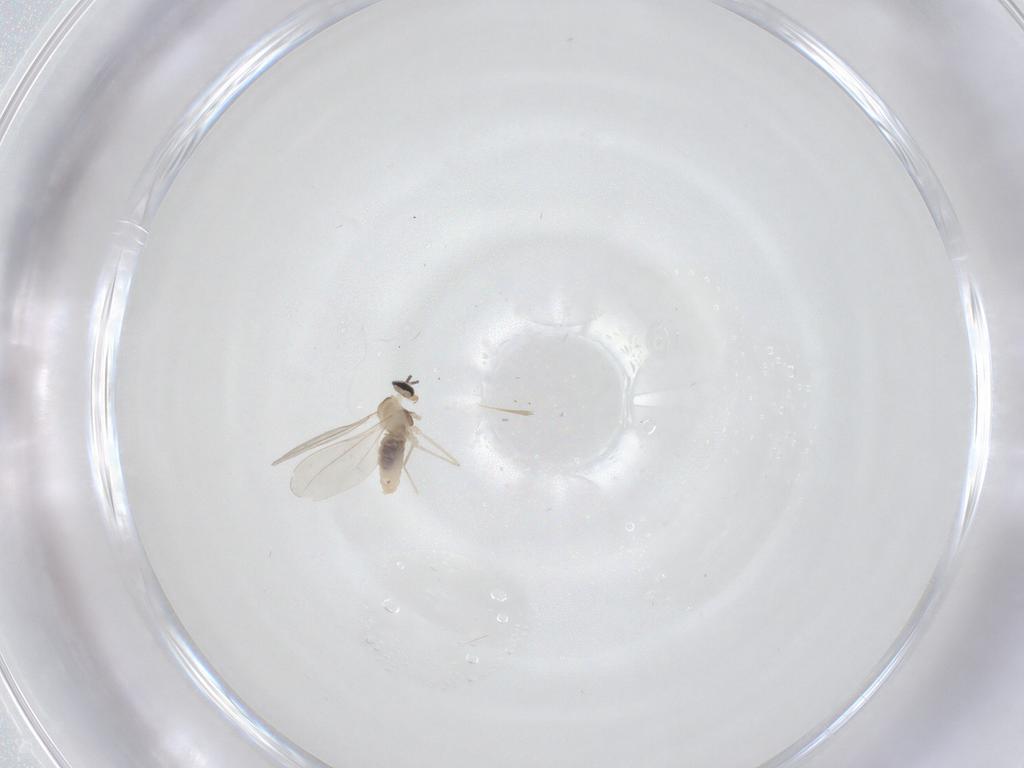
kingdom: Animalia
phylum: Arthropoda
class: Insecta
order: Diptera
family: Cecidomyiidae
